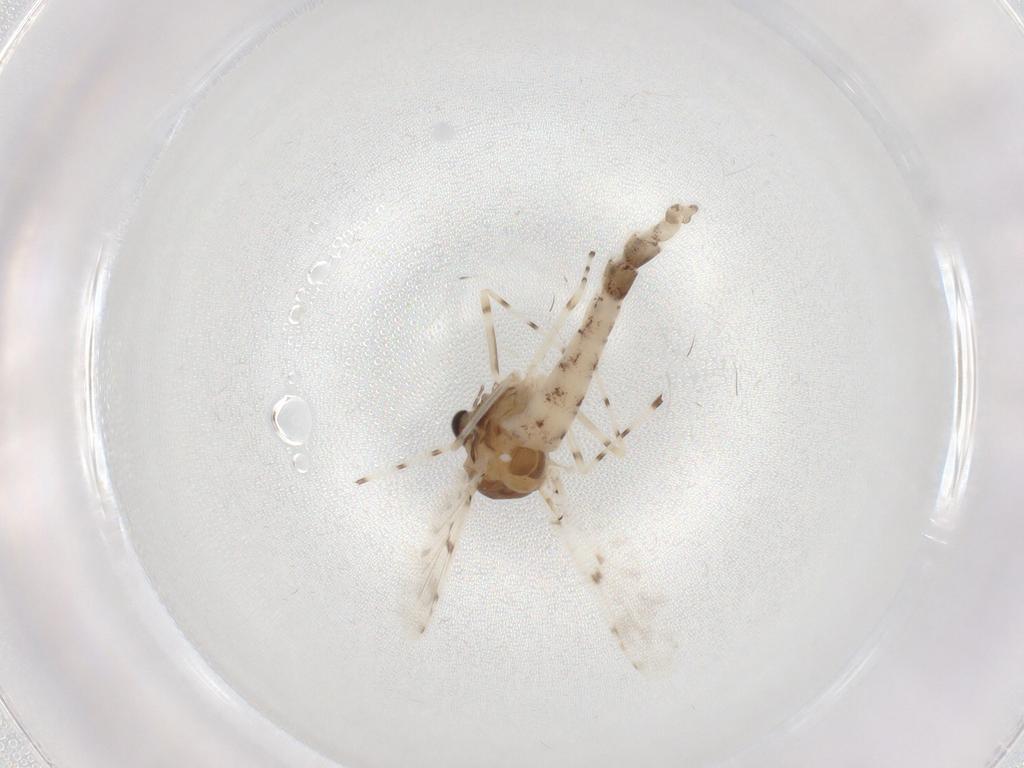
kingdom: Animalia
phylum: Arthropoda
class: Insecta
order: Diptera
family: Chironomidae
